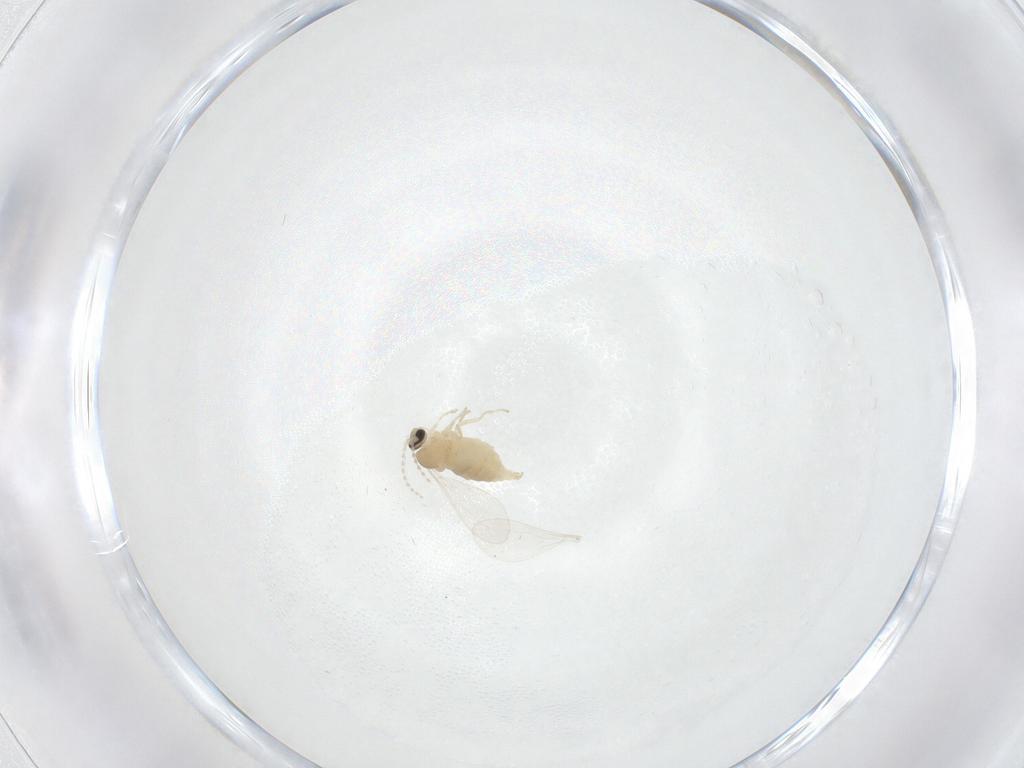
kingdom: Animalia
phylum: Arthropoda
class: Insecta
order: Diptera
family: Cecidomyiidae
